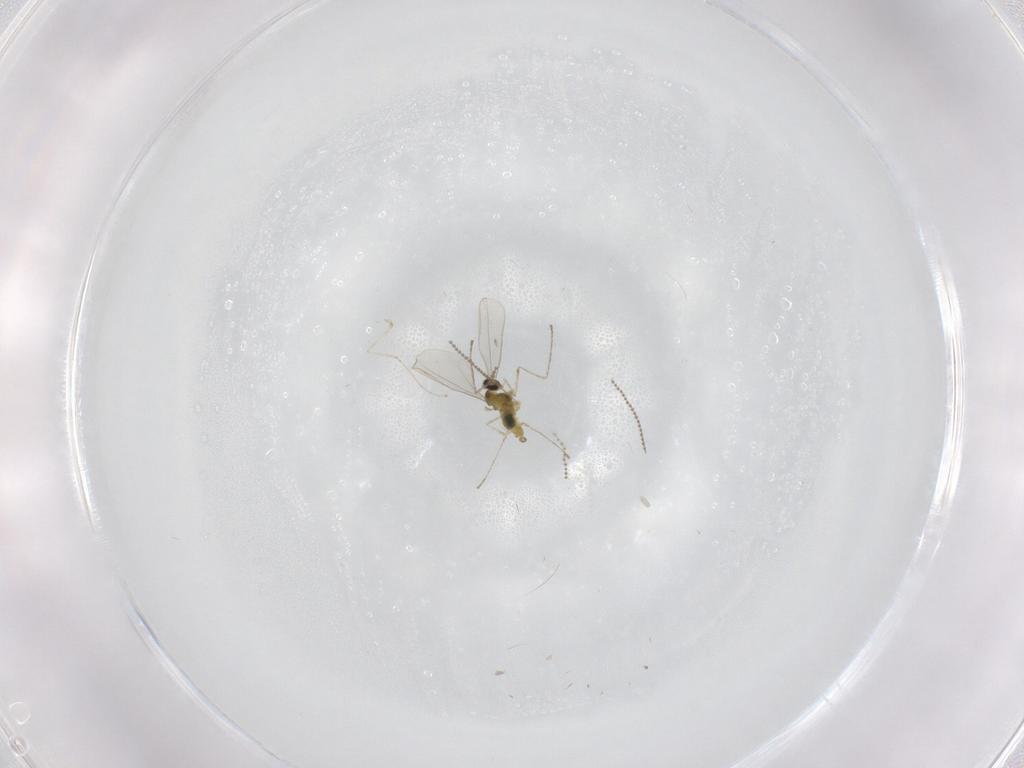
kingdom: Animalia
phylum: Arthropoda
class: Insecta
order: Diptera
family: Cecidomyiidae
